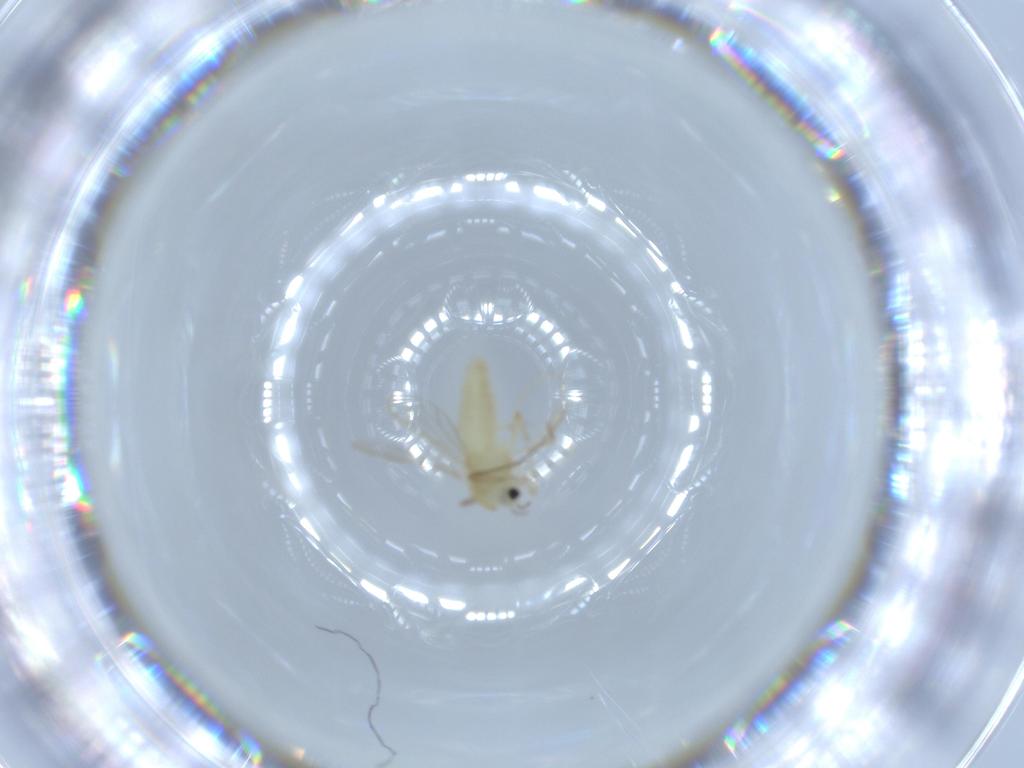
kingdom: Animalia
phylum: Arthropoda
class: Insecta
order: Diptera
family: Chironomidae
